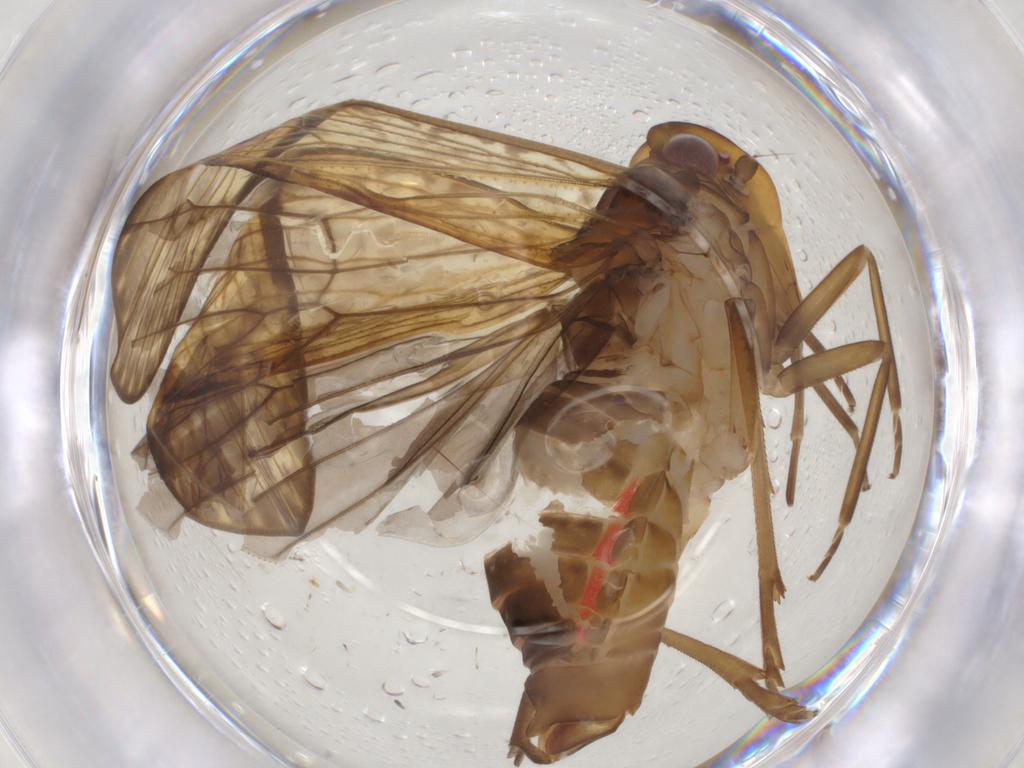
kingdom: Animalia
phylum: Arthropoda
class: Insecta
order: Hemiptera
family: Cixiidae
